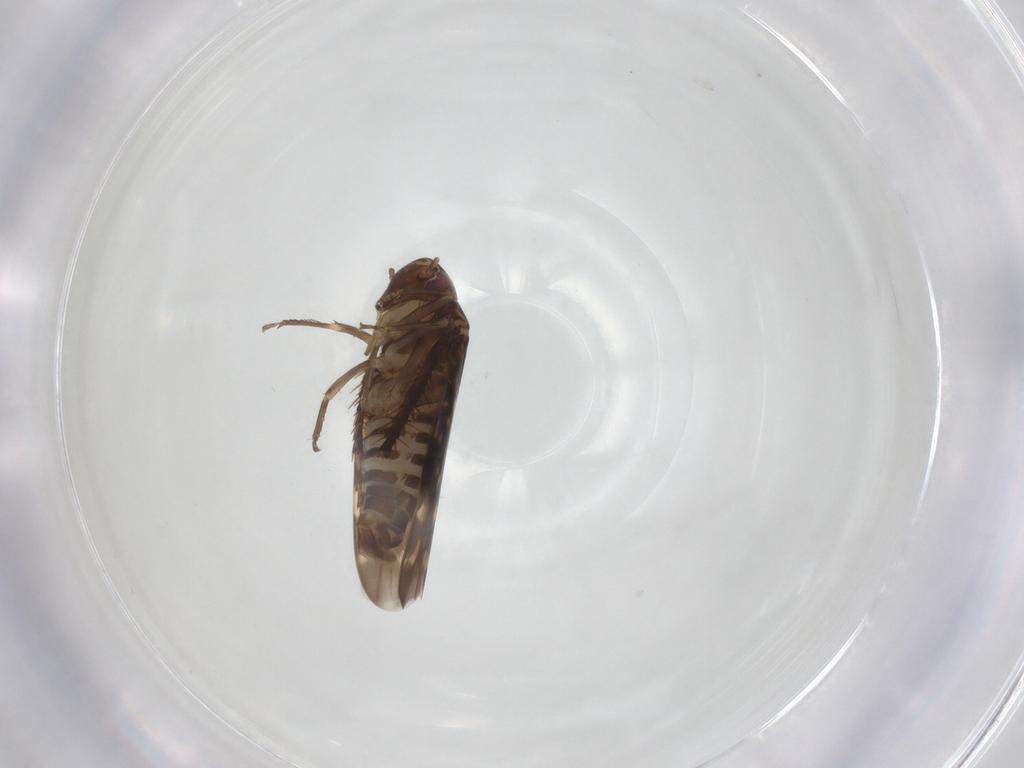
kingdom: Animalia
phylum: Arthropoda
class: Insecta
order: Hemiptera
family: Cicadellidae
